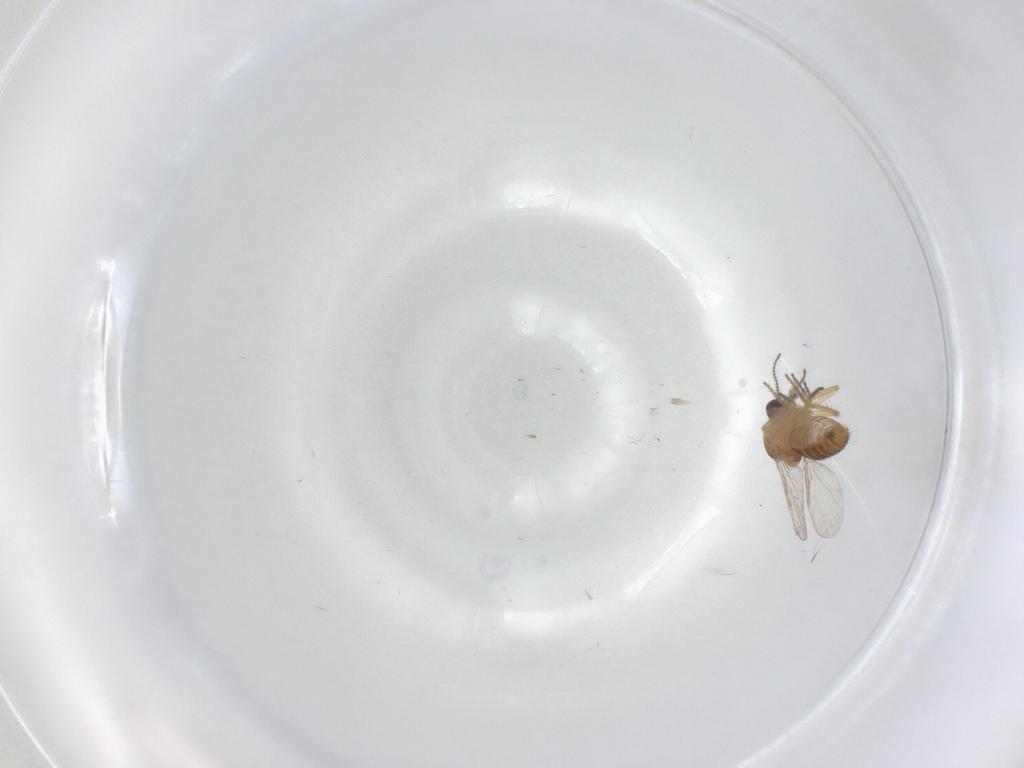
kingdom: Animalia
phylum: Arthropoda
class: Insecta
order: Diptera
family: Ceratopogonidae
